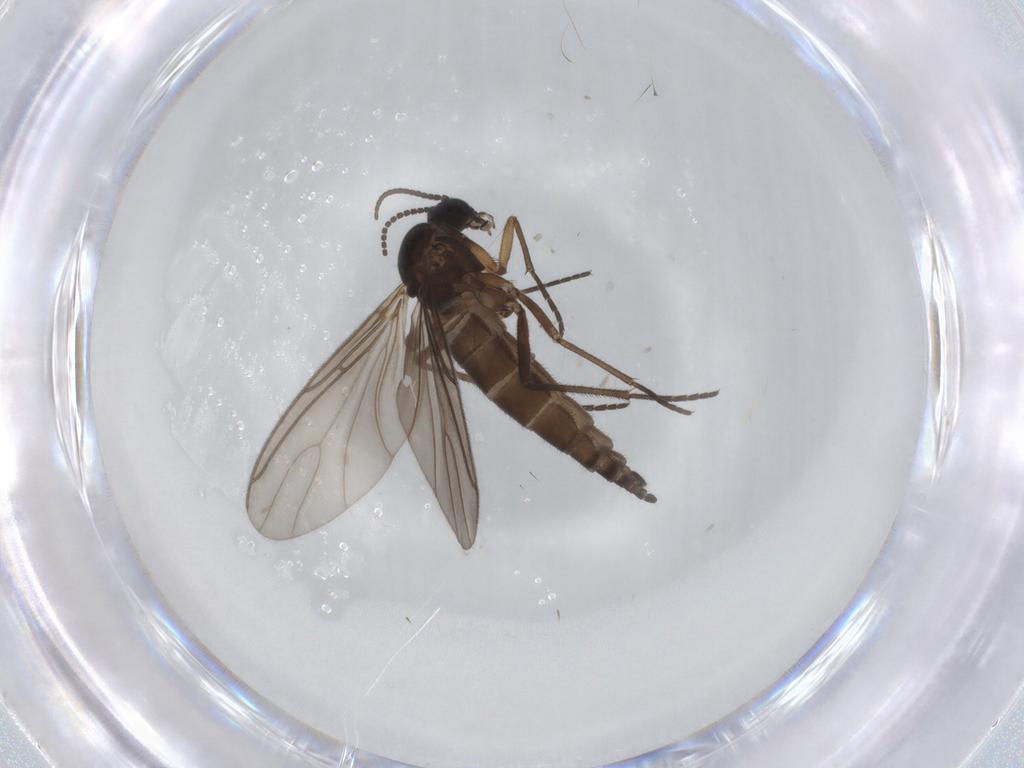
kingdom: Animalia
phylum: Arthropoda
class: Insecta
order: Diptera
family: Sciaridae
